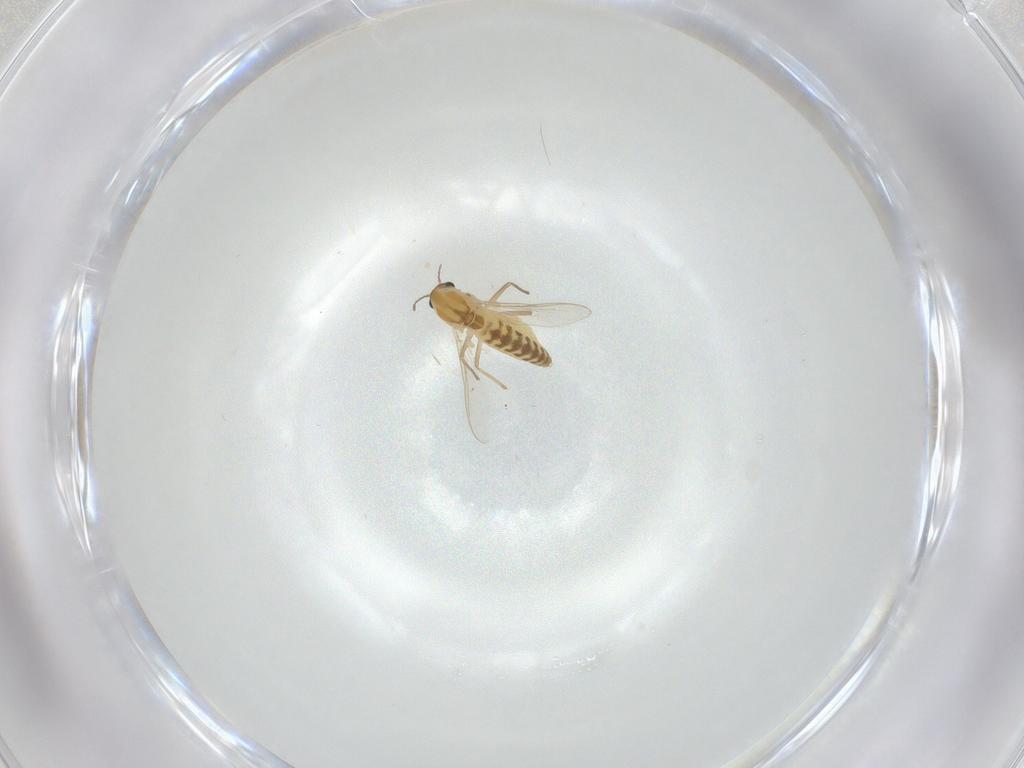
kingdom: Animalia
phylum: Arthropoda
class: Insecta
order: Diptera
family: Chironomidae
